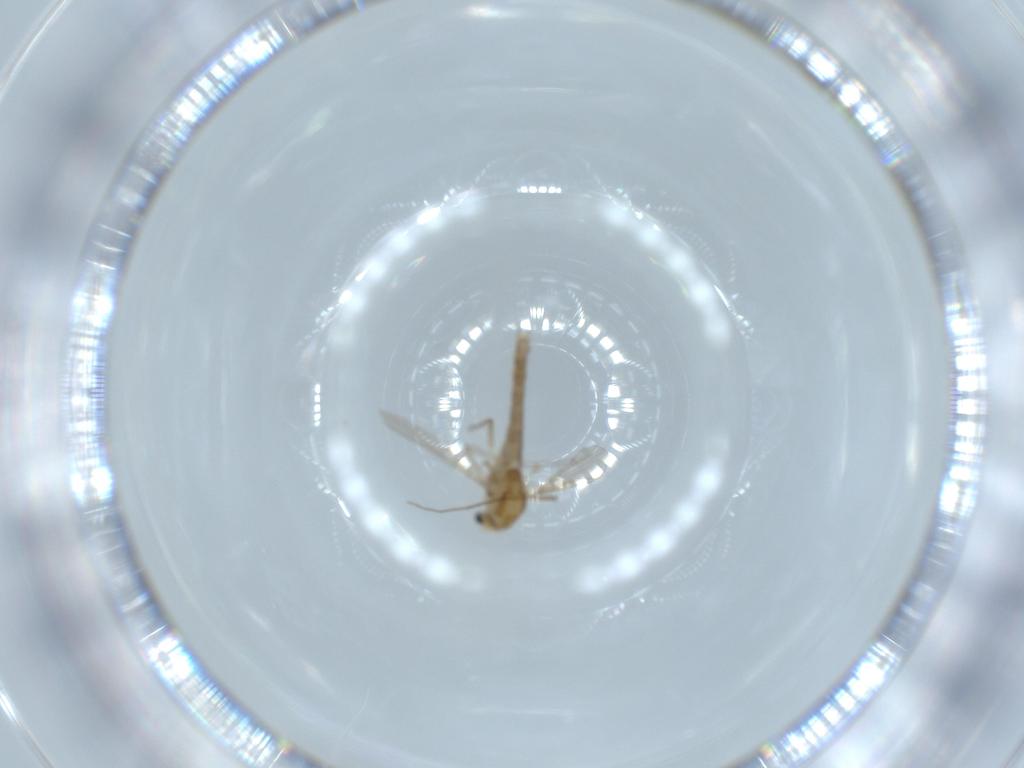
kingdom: Animalia
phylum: Arthropoda
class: Insecta
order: Diptera
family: Chironomidae
